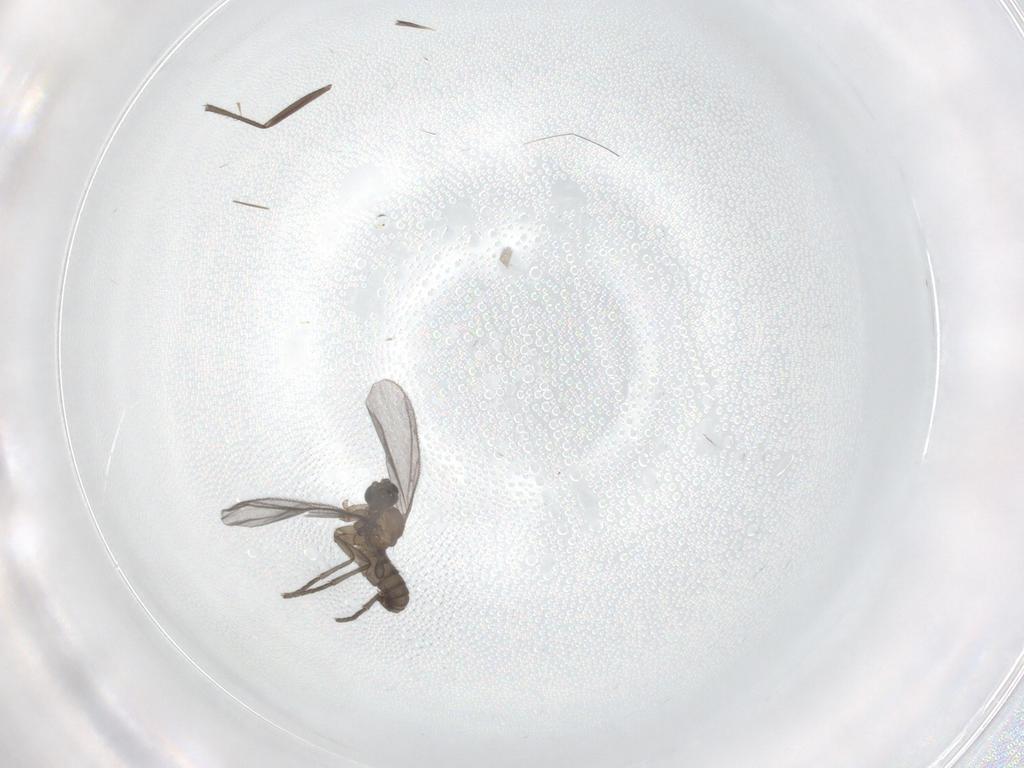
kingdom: Animalia
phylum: Arthropoda
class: Insecta
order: Diptera
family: Sciaridae
